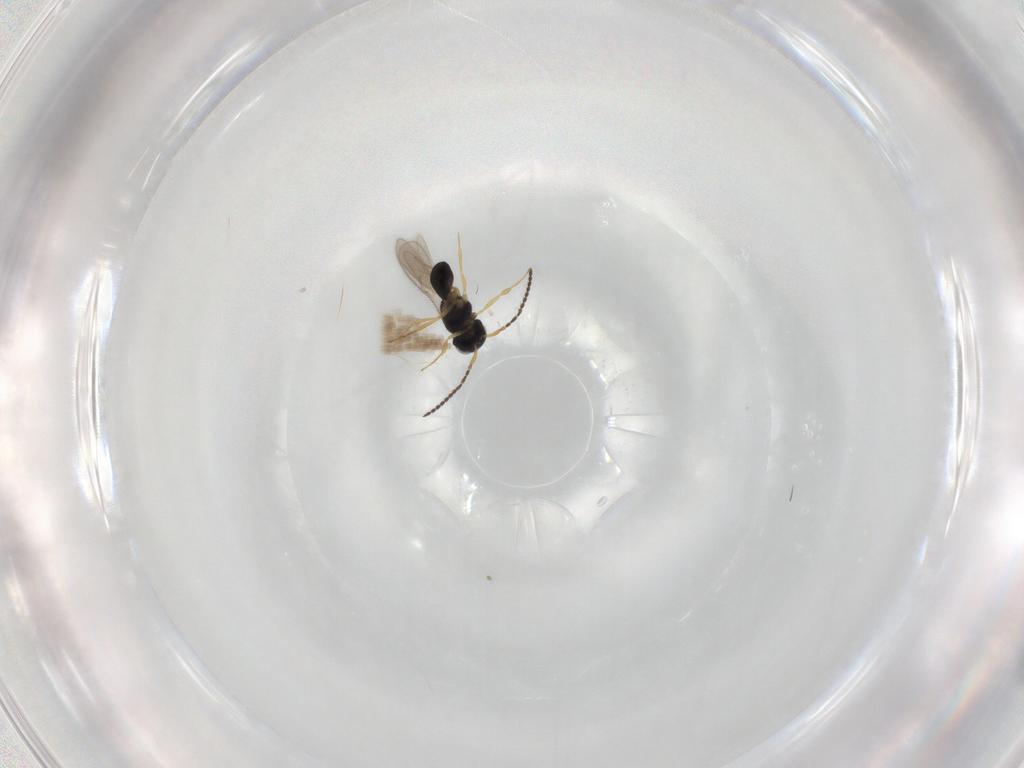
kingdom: Animalia
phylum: Arthropoda
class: Insecta
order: Hymenoptera
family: Scelionidae
